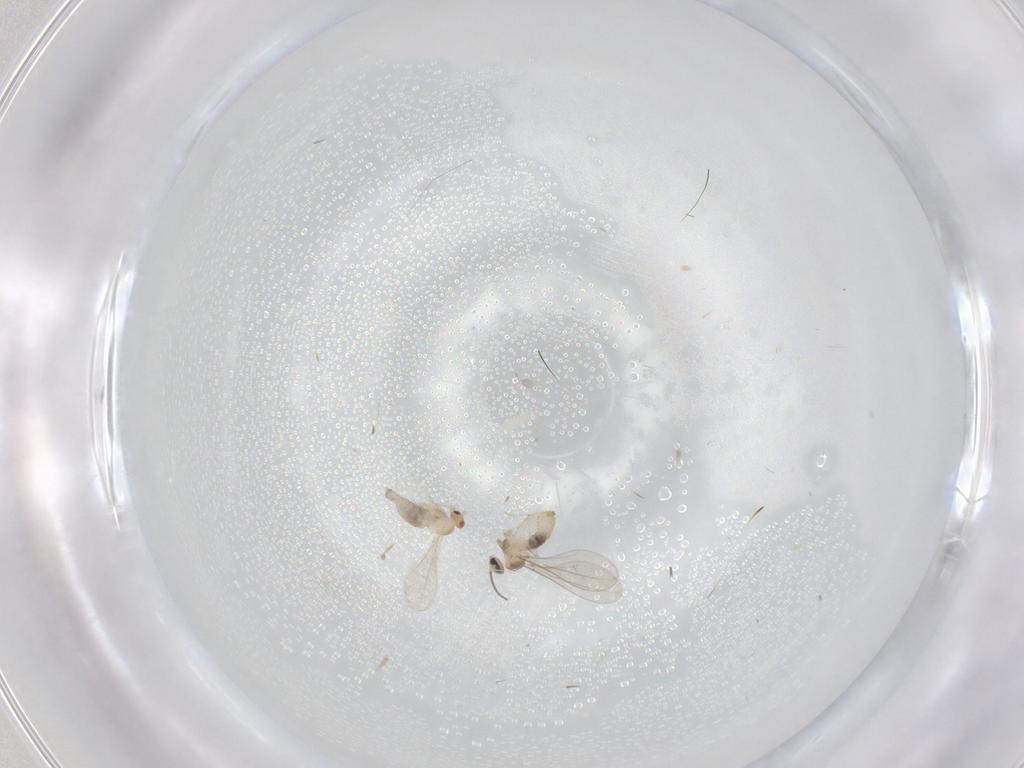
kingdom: Animalia
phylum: Arthropoda
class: Insecta
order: Diptera
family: Cecidomyiidae
